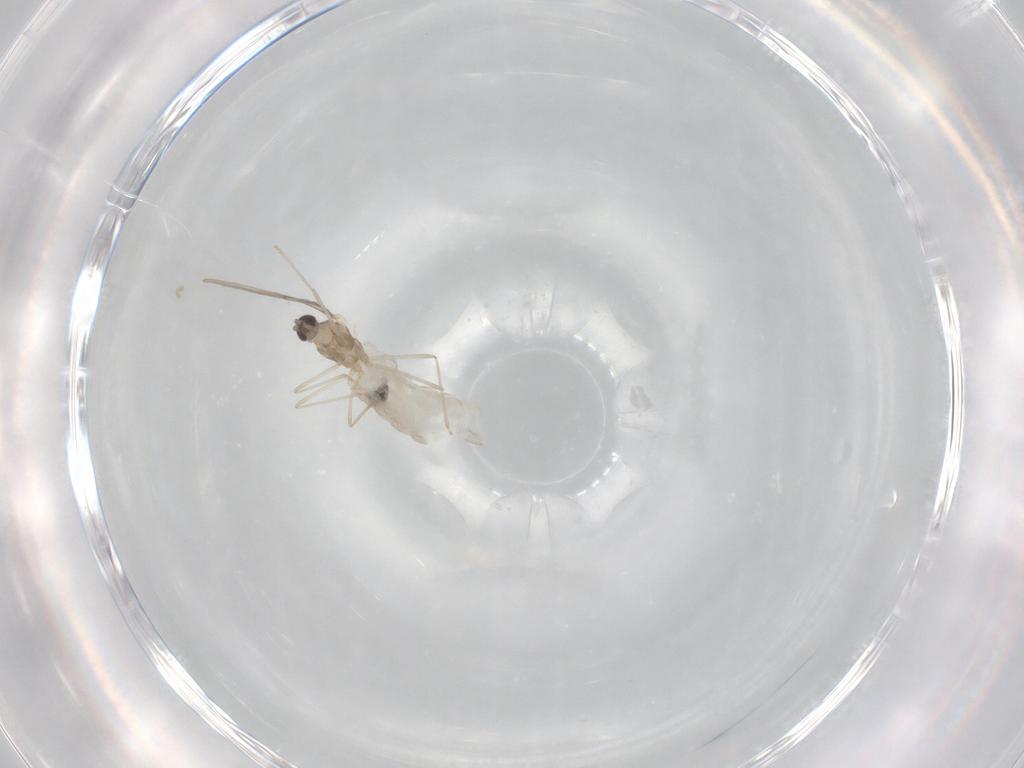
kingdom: Animalia
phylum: Arthropoda
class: Insecta
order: Diptera
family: Cecidomyiidae
